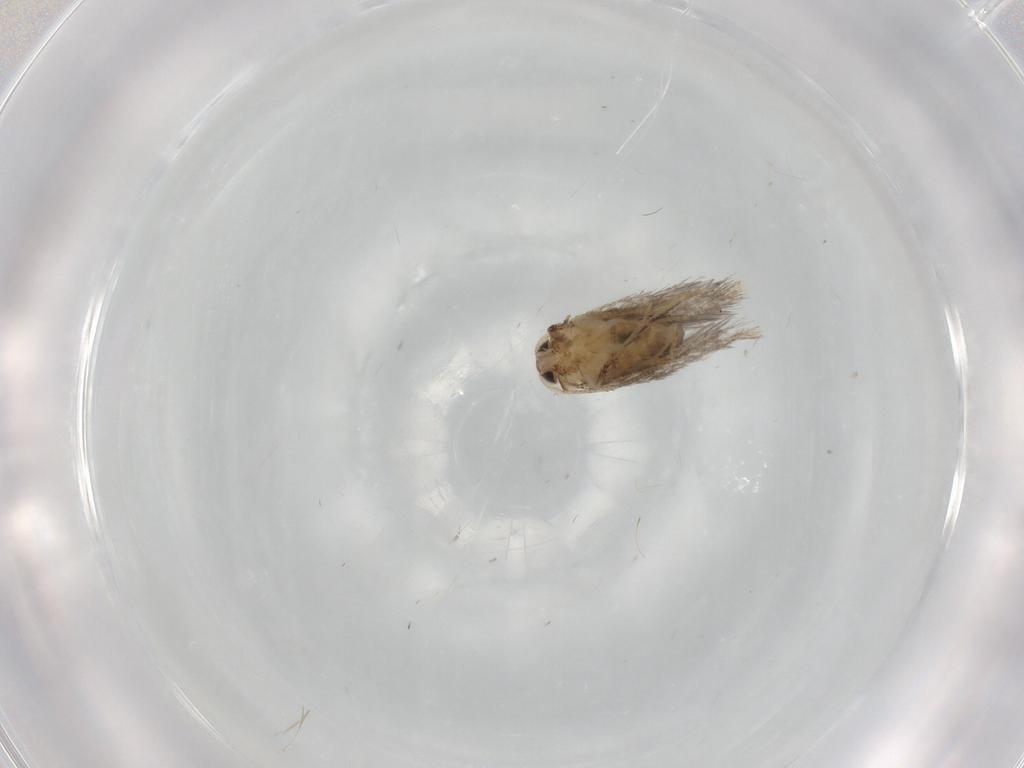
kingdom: Animalia
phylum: Arthropoda
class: Insecta
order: Lepidoptera
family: Nepticulidae
